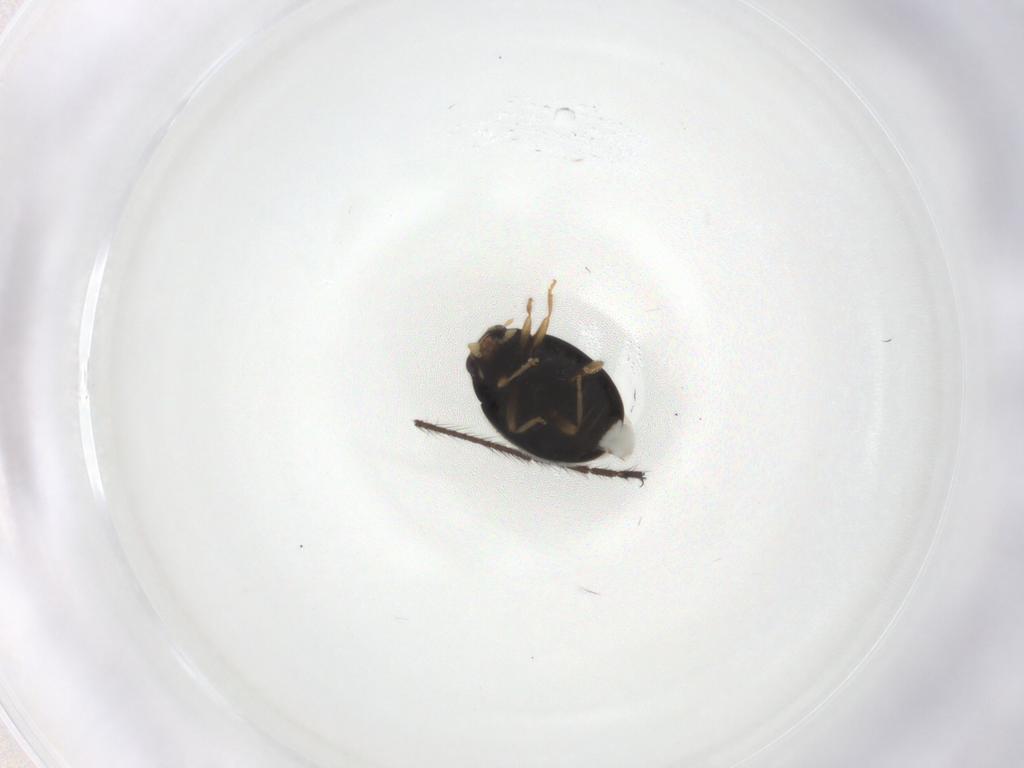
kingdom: Animalia
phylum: Arthropoda
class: Insecta
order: Coleoptera
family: Coccinellidae
